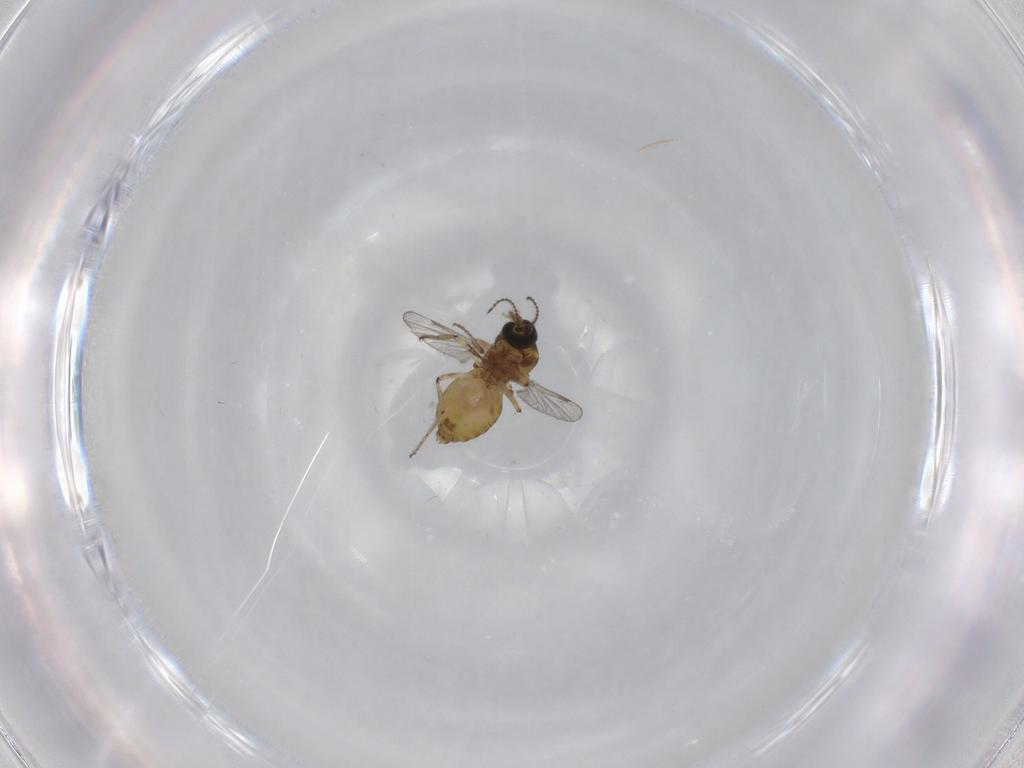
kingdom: Animalia
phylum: Arthropoda
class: Insecta
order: Diptera
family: Ceratopogonidae
